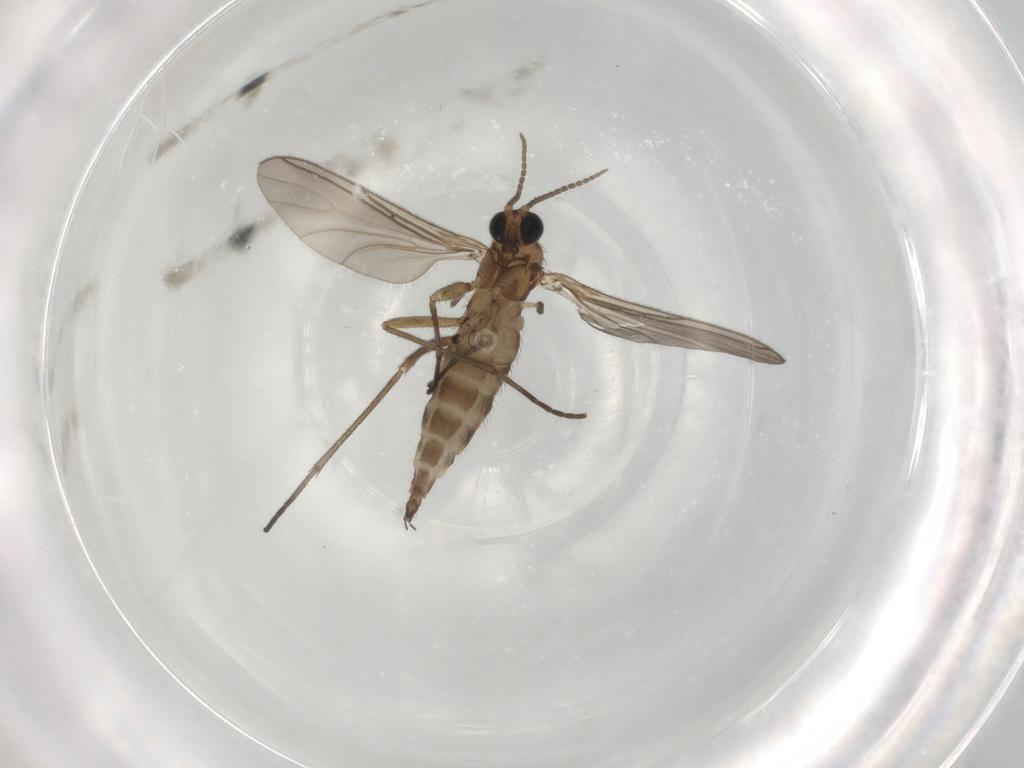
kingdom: Animalia
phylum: Arthropoda
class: Insecta
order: Diptera
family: Sciaridae
